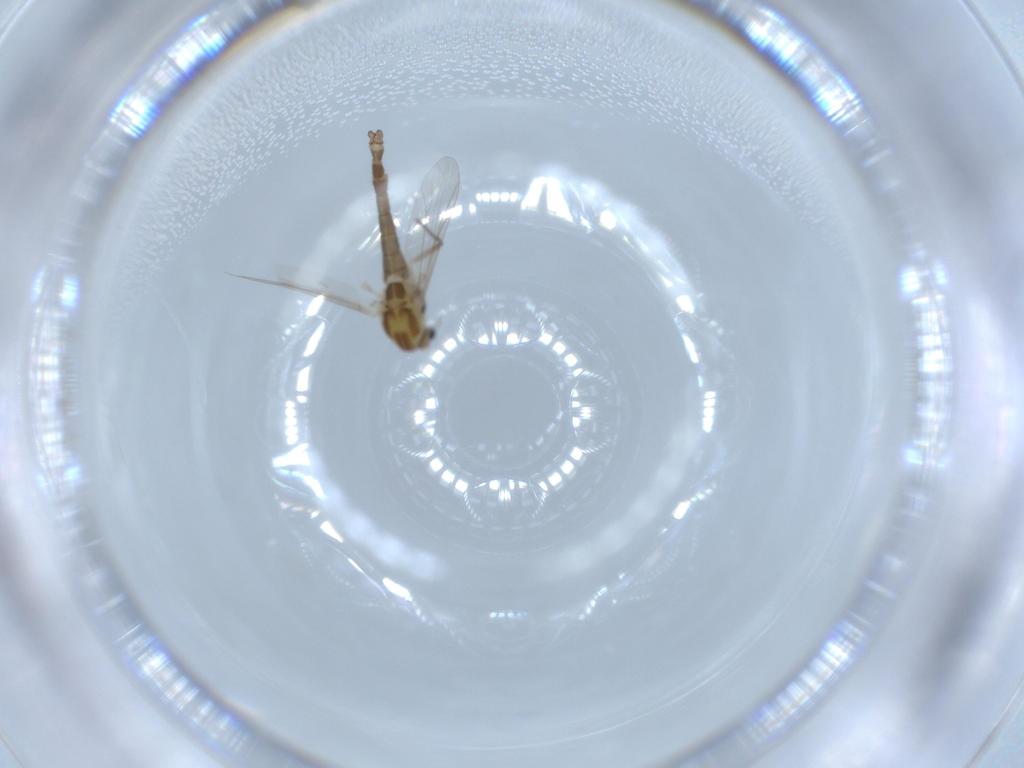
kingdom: Animalia
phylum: Arthropoda
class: Insecta
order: Diptera
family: Chironomidae
